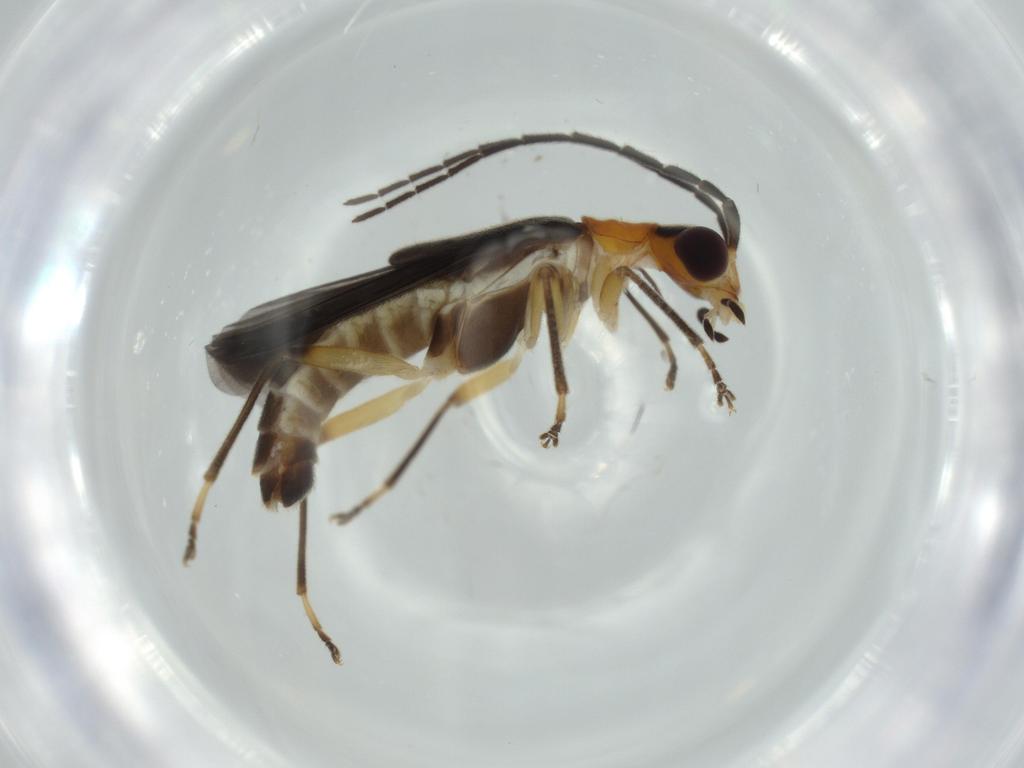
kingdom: Animalia
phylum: Arthropoda
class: Insecta
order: Coleoptera
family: Cantharidae
